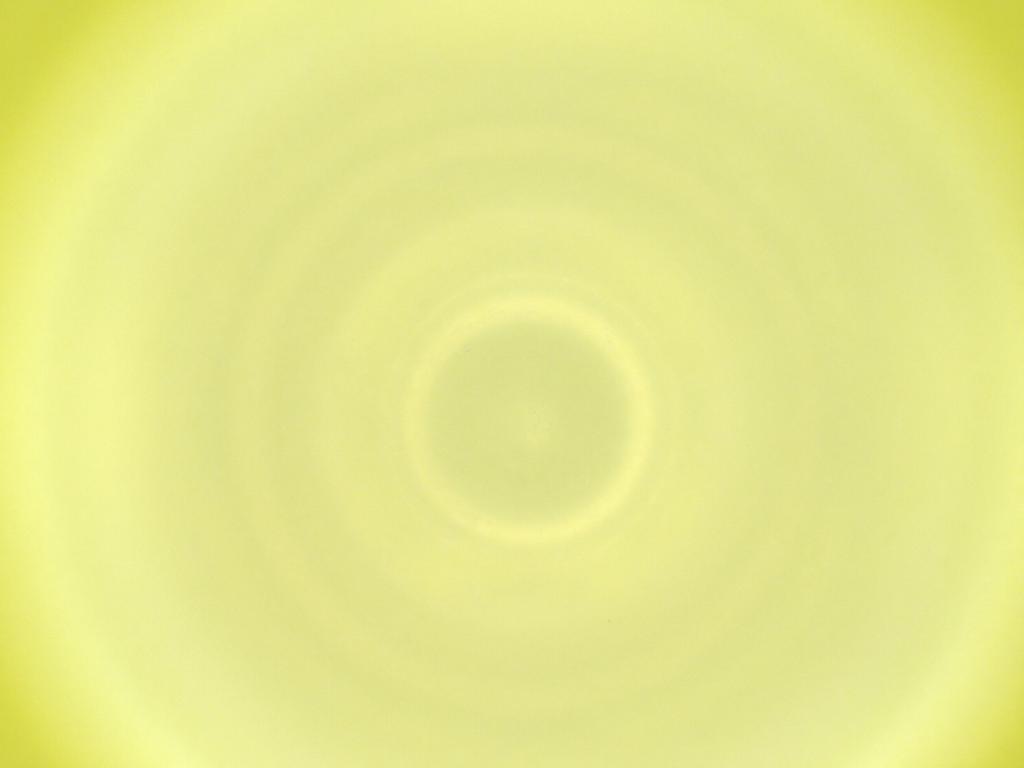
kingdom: Animalia
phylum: Arthropoda
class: Insecta
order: Diptera
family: Cecidomyiidae
